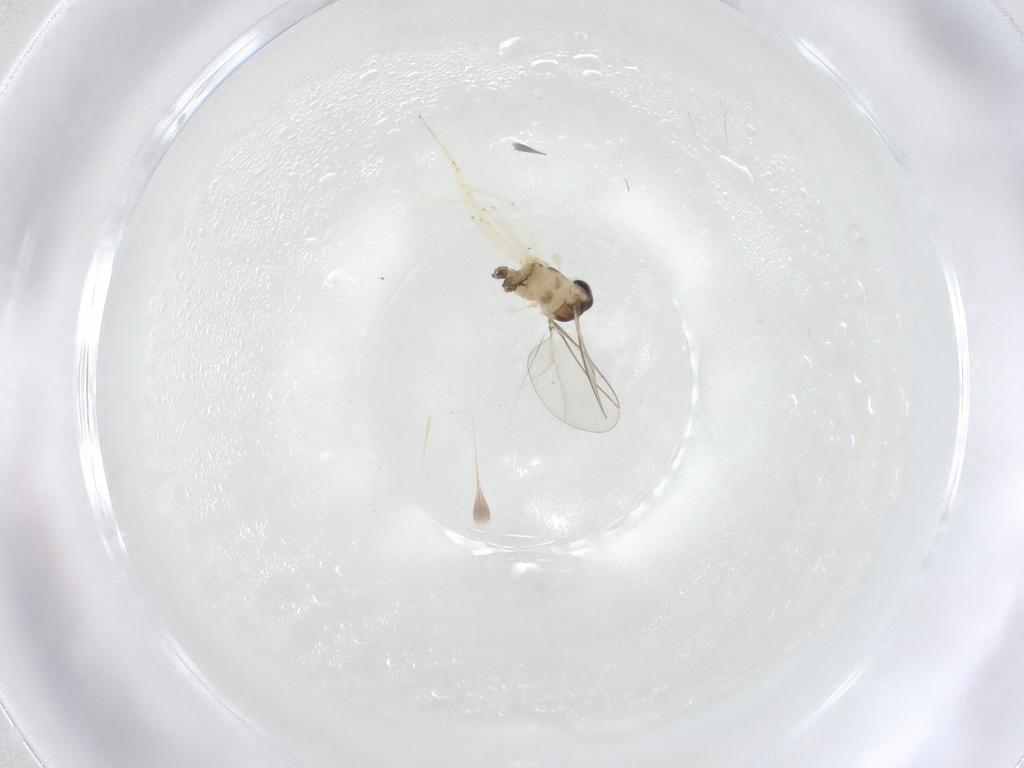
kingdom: Animalia
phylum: Arthropoda
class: Insecta
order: Diptera
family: Cecidomyiidae
